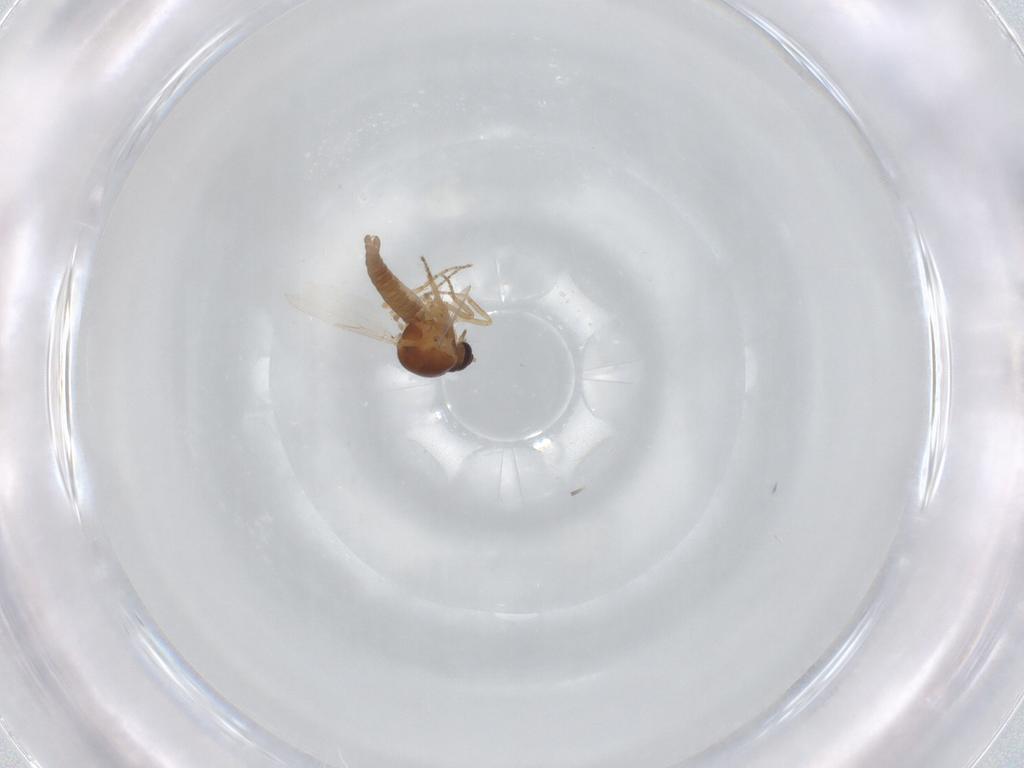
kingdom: Animalia
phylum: Arthropoda
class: Insecta
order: Diptera
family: Ceratopogonidae
